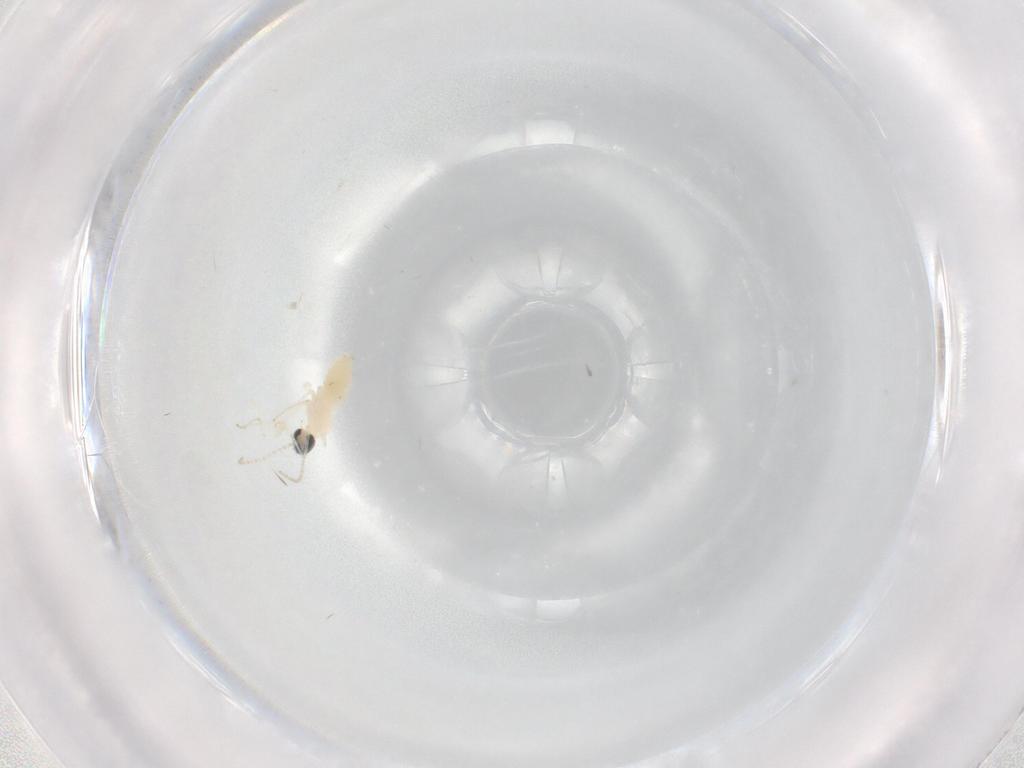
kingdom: Animalia
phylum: Arthropoda
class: Insecta
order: Diptera
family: Cecidomyiidae
